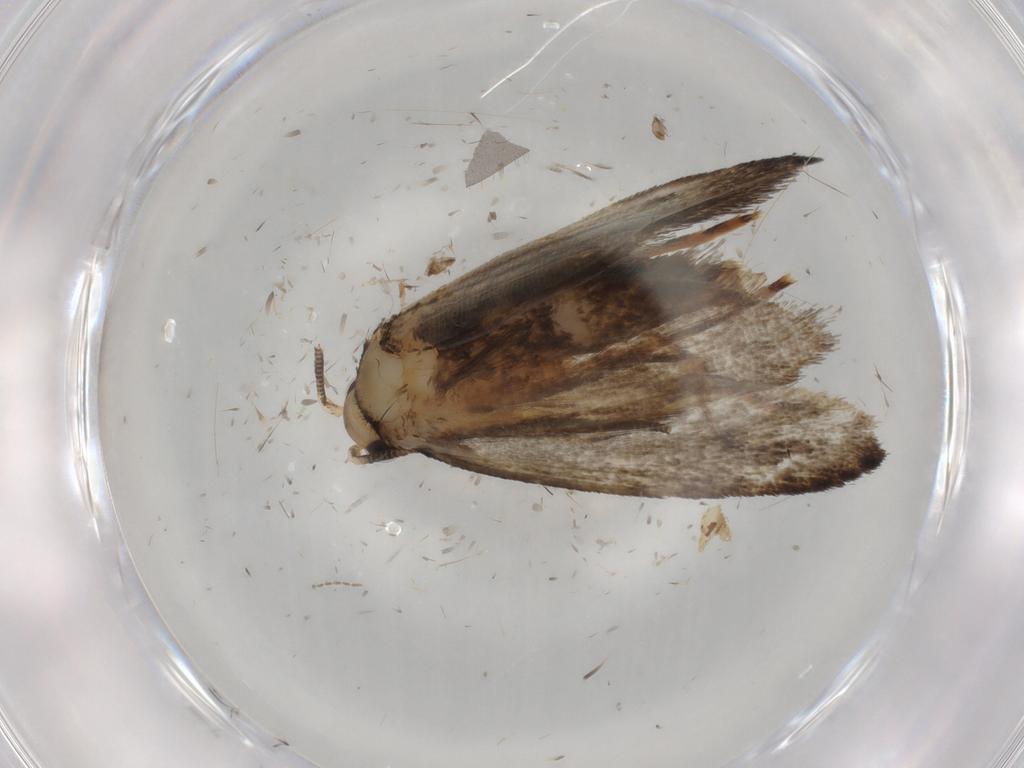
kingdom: Animalia
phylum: Arthropoda
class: Insecta
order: Lepidoptera
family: Tineidae
